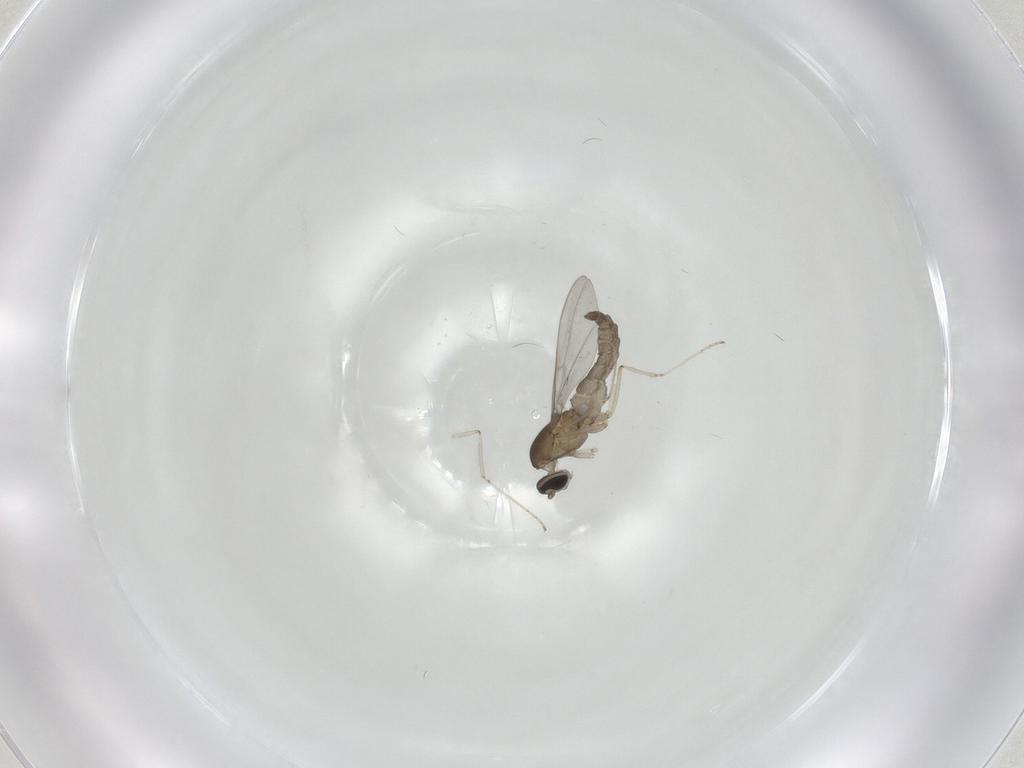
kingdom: Animalia
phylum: Arthropoda
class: Insecta
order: Diptera
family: Cecidomyiidae
